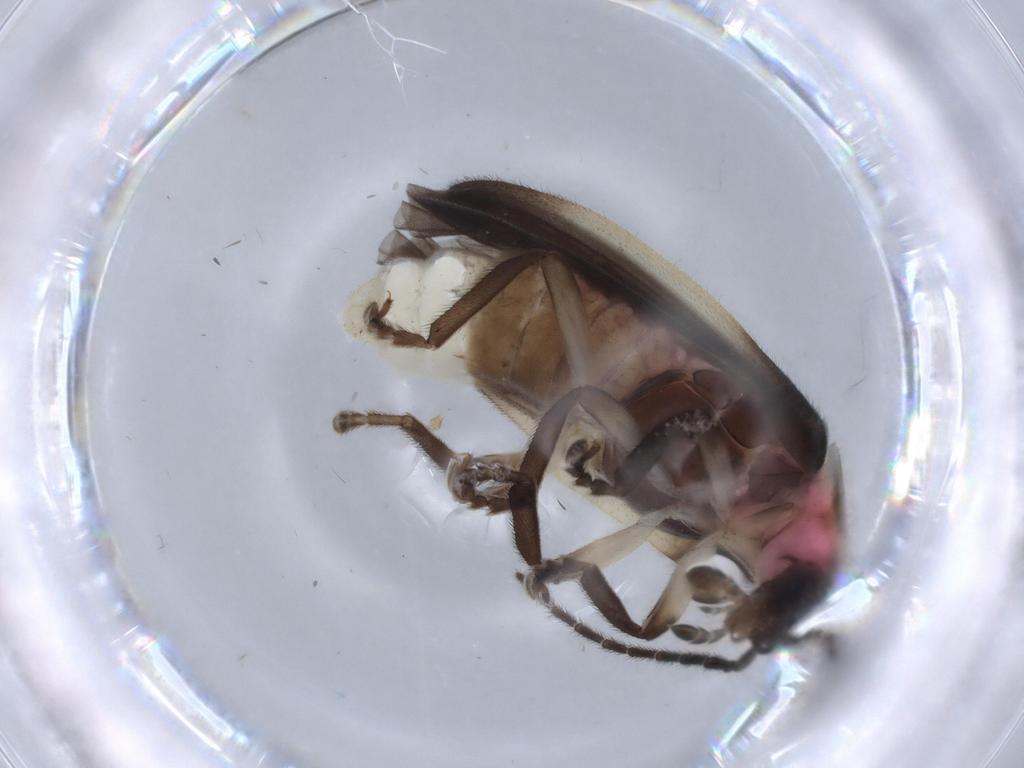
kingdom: Animalia
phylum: Arthropoda
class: Insecta
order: Coleoptera
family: Lampyridae
